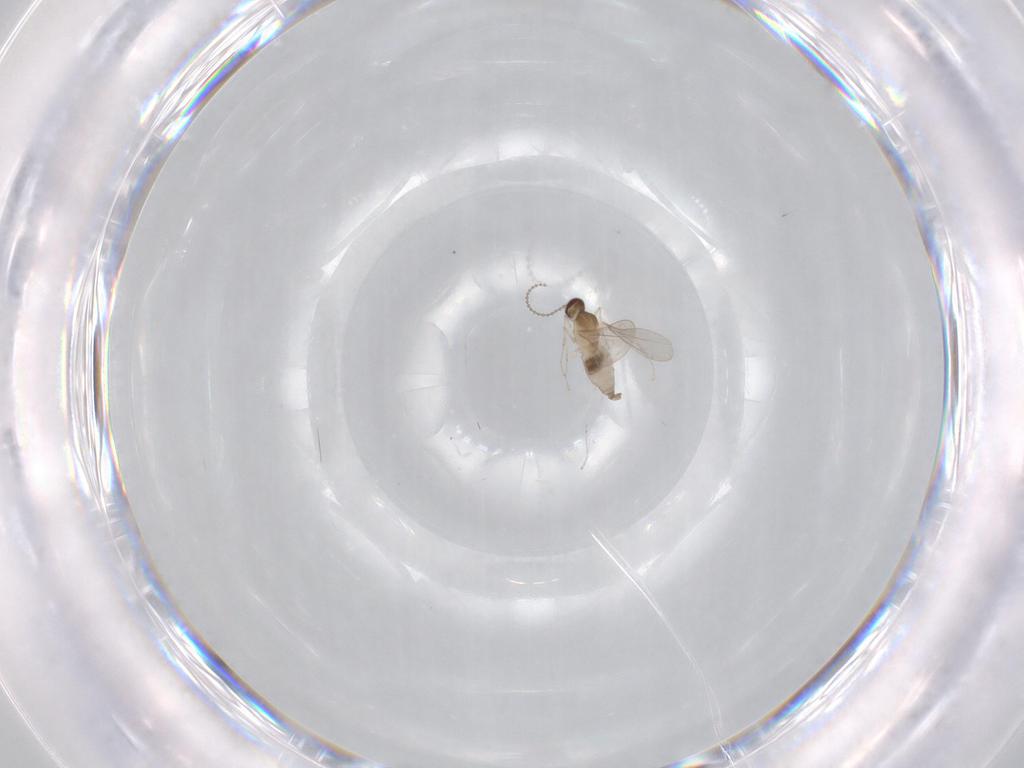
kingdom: Animalia
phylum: Arthropoda
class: Insecta
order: Diptera
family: Cecidomyiidae
